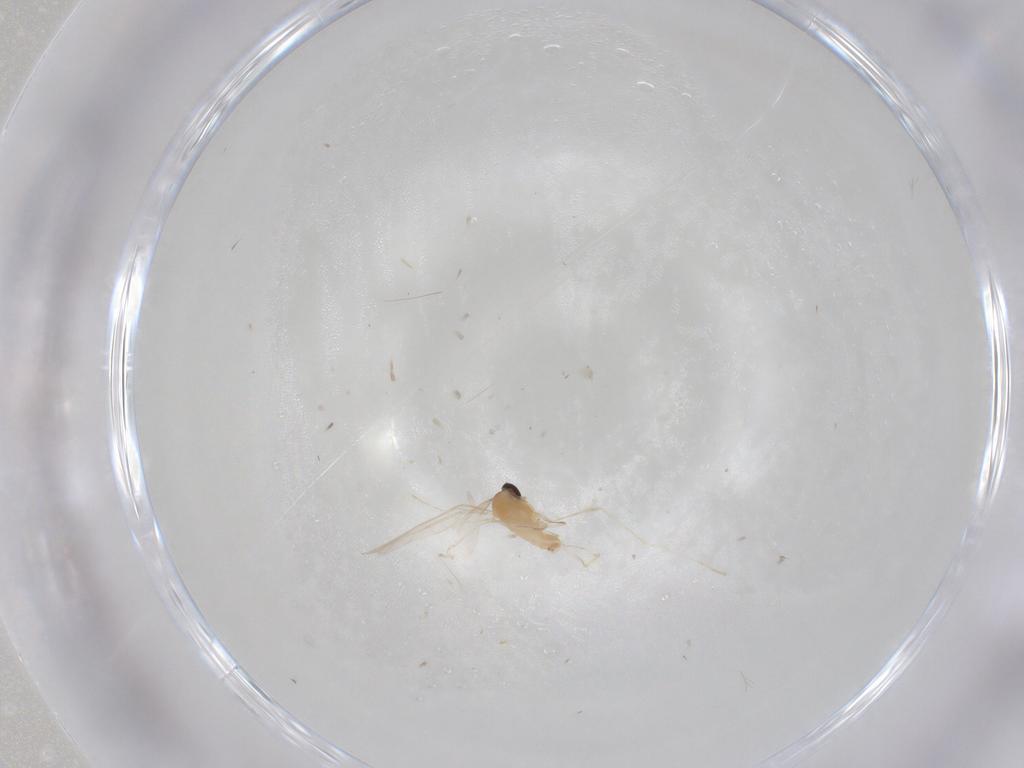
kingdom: Animalia
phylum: Arthropoda
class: Insecta
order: Diptera
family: Cecidomyiidae
